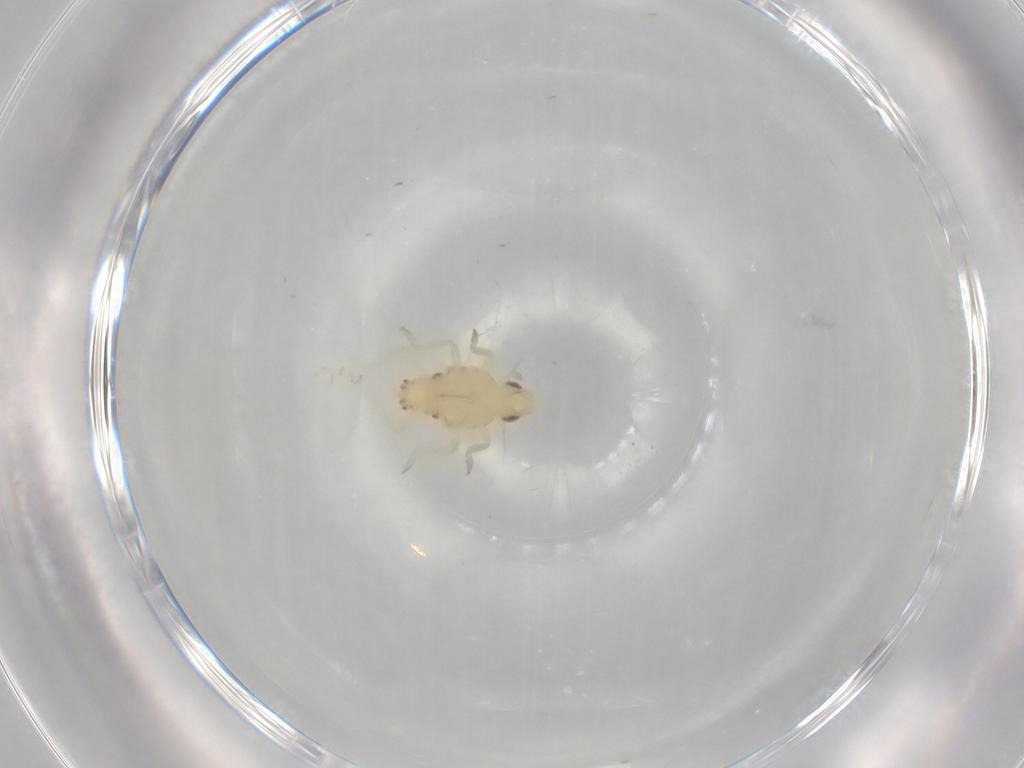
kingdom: Animalia
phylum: Arthropoda
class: Insecta
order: Hemiptera
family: Tropiduchidae
